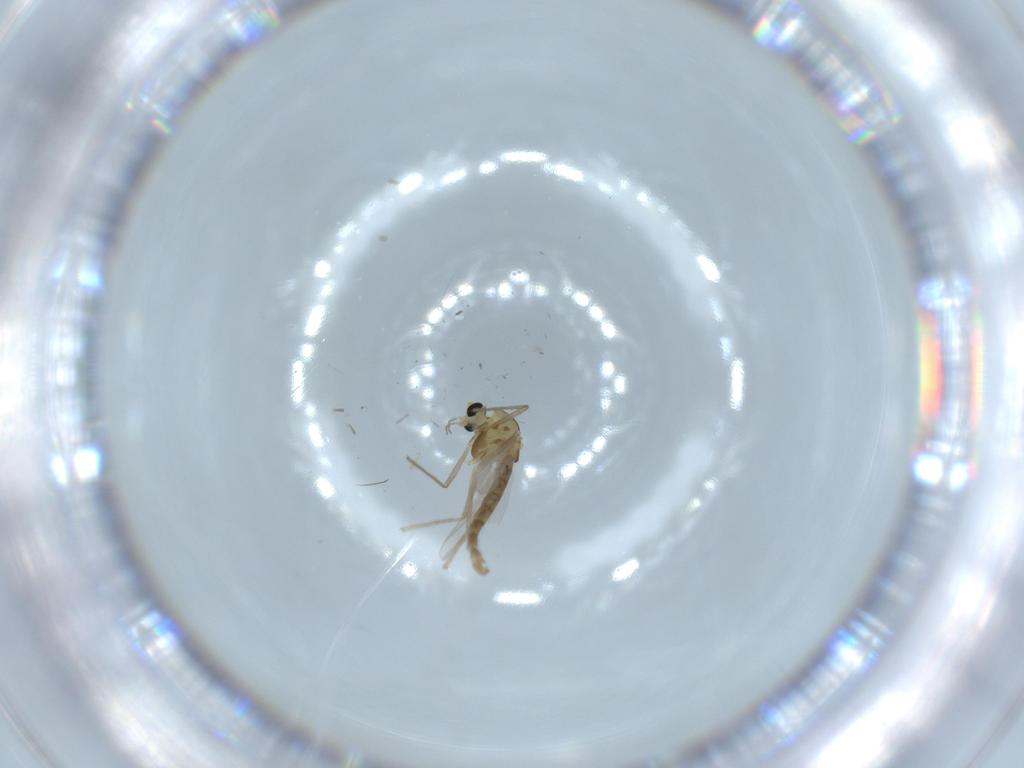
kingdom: Animalia
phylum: Arthropoda
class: Insecta
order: Diptera
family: Chironomidae
